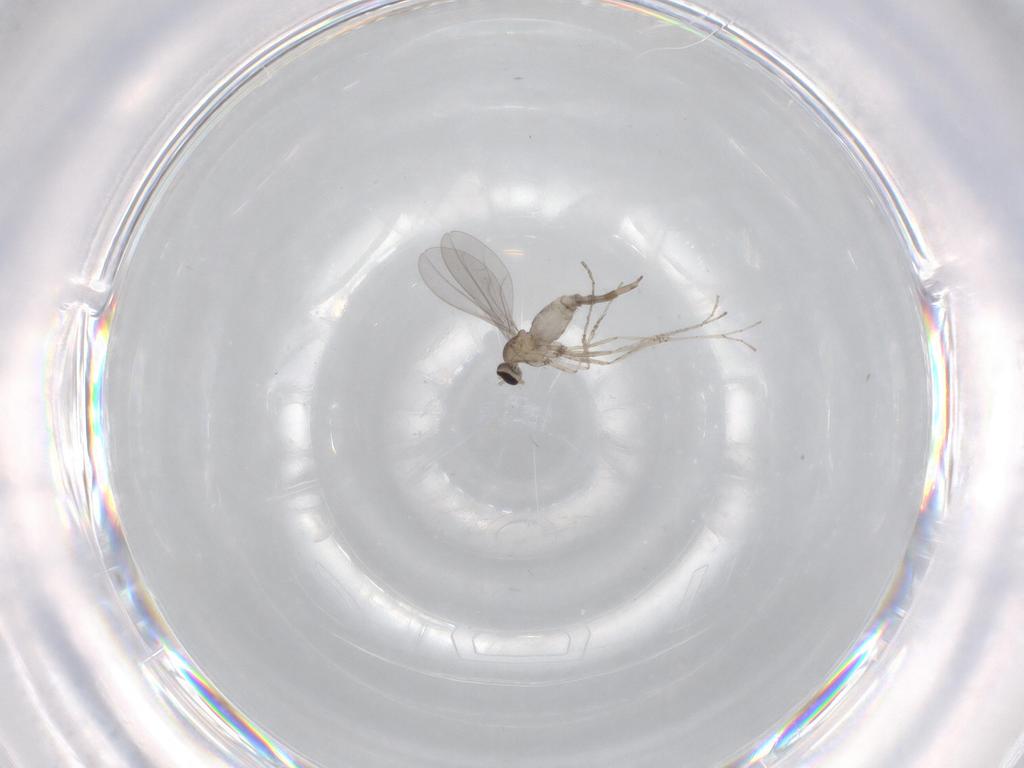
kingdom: Animalia
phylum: Arthropoda
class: Insecta
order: Diptera
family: Cecidomyiidae
